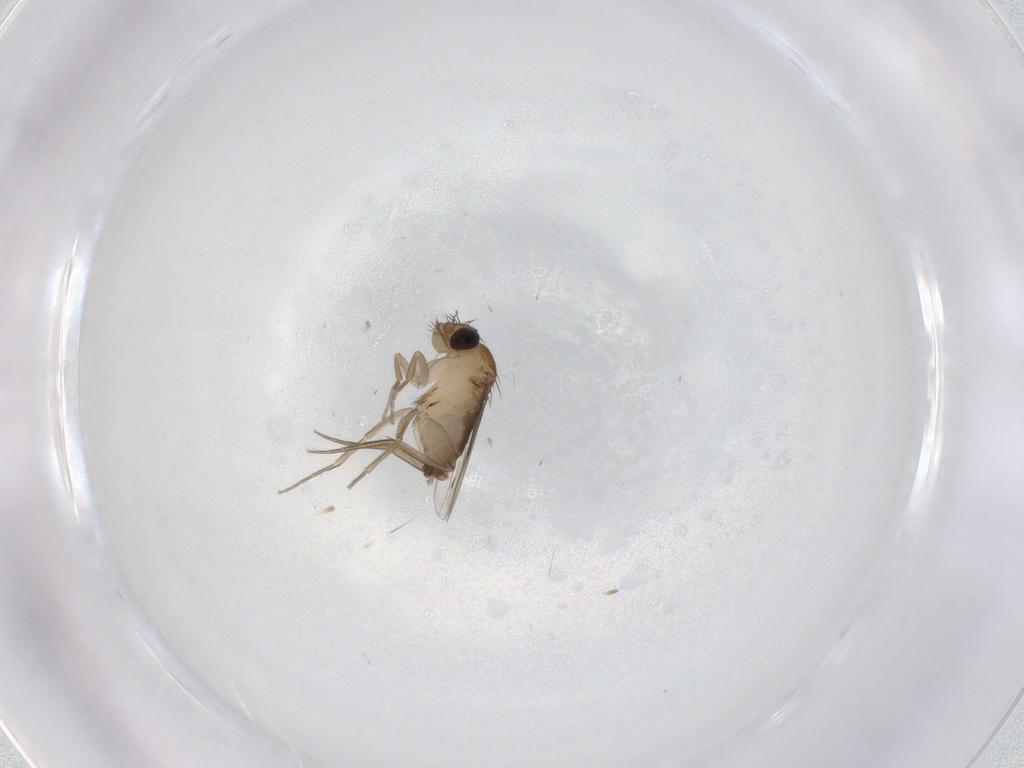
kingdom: Animalia
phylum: Arthropoda
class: Insecta
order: Diptera
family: Phoridae
